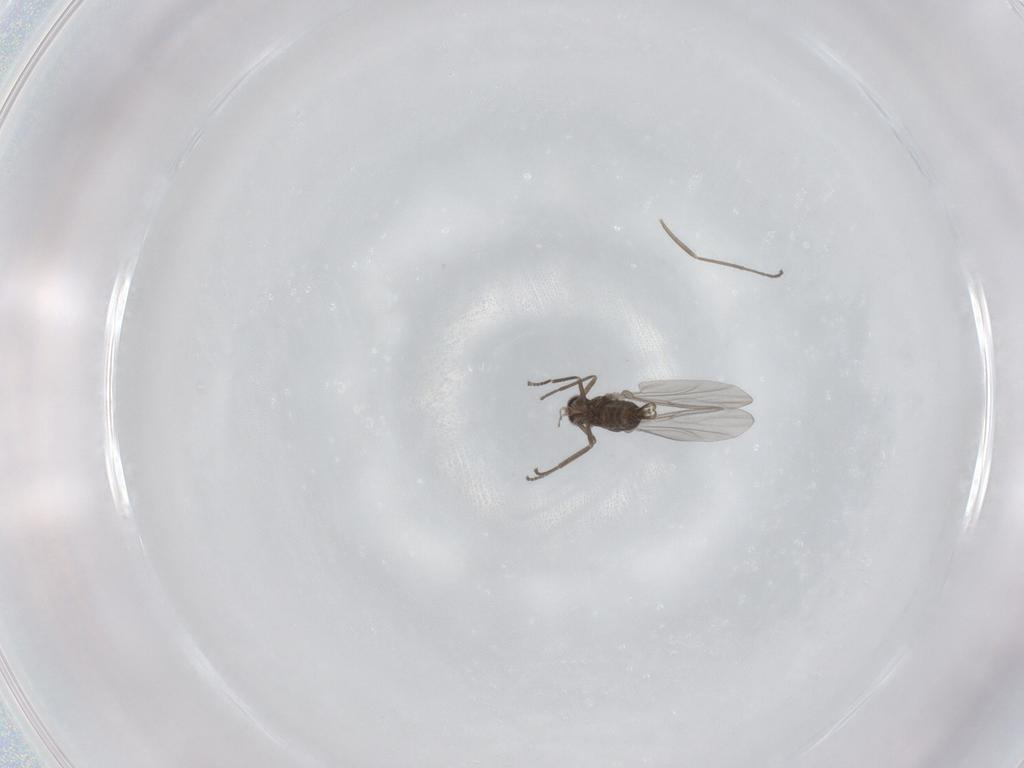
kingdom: Animalia
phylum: Arthropoda
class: Insecta
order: Diptera
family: Cecidomyiidae
